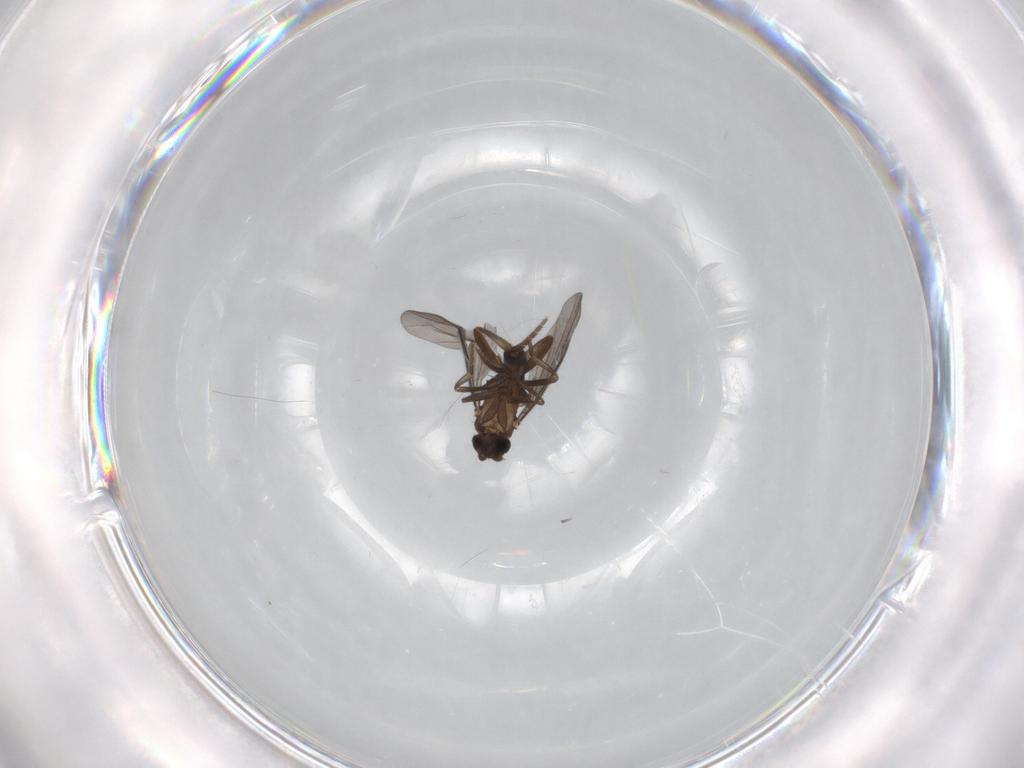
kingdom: Animalia
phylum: Arthropoda
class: Insecta
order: Diptera
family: Phoridae
